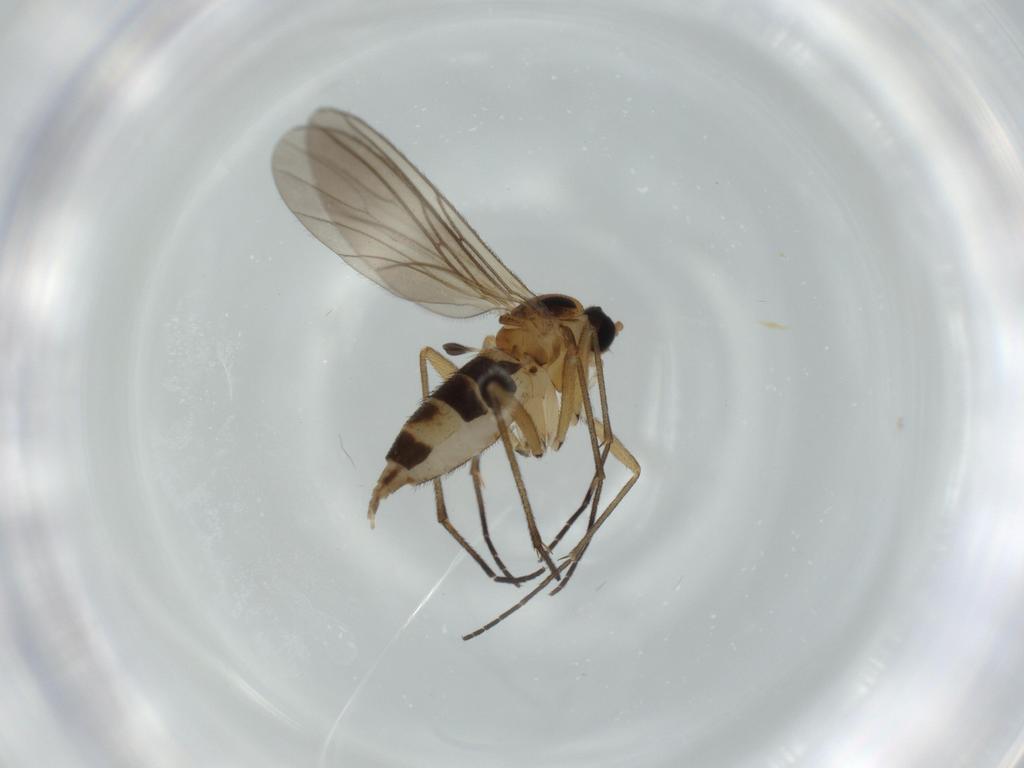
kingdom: Animalia
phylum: Arthropoda
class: Insecta
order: Diptera
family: Sciaridae
